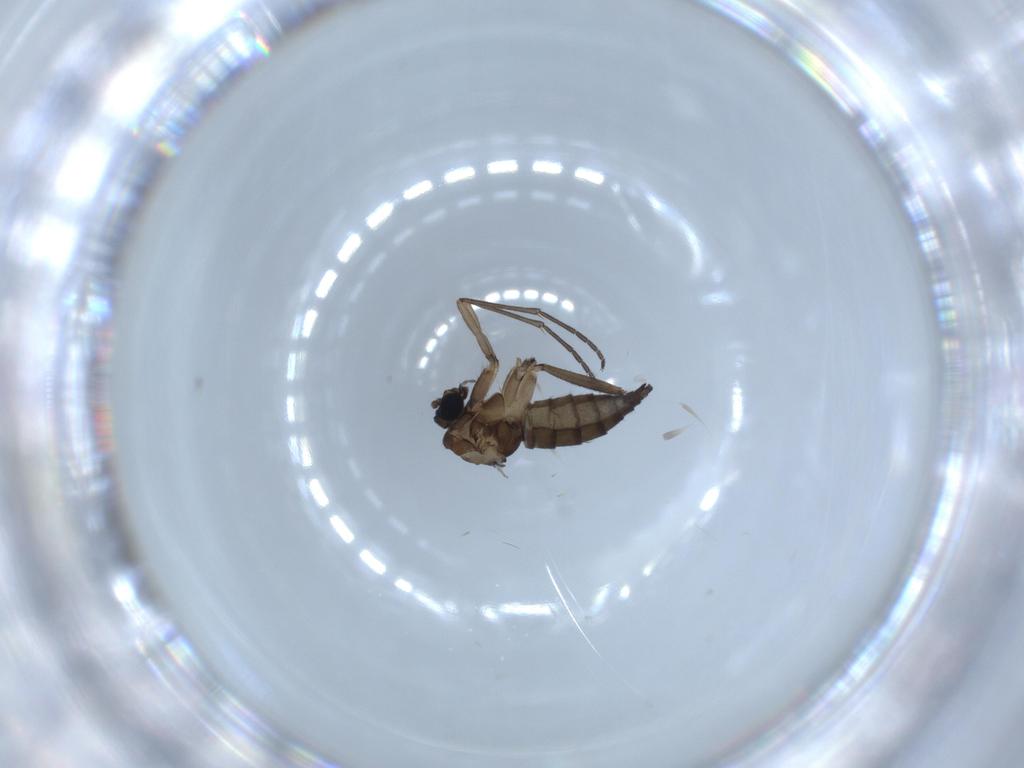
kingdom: Animalia
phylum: Arthropoda
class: Insecta
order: Diptera
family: Sciaridae
